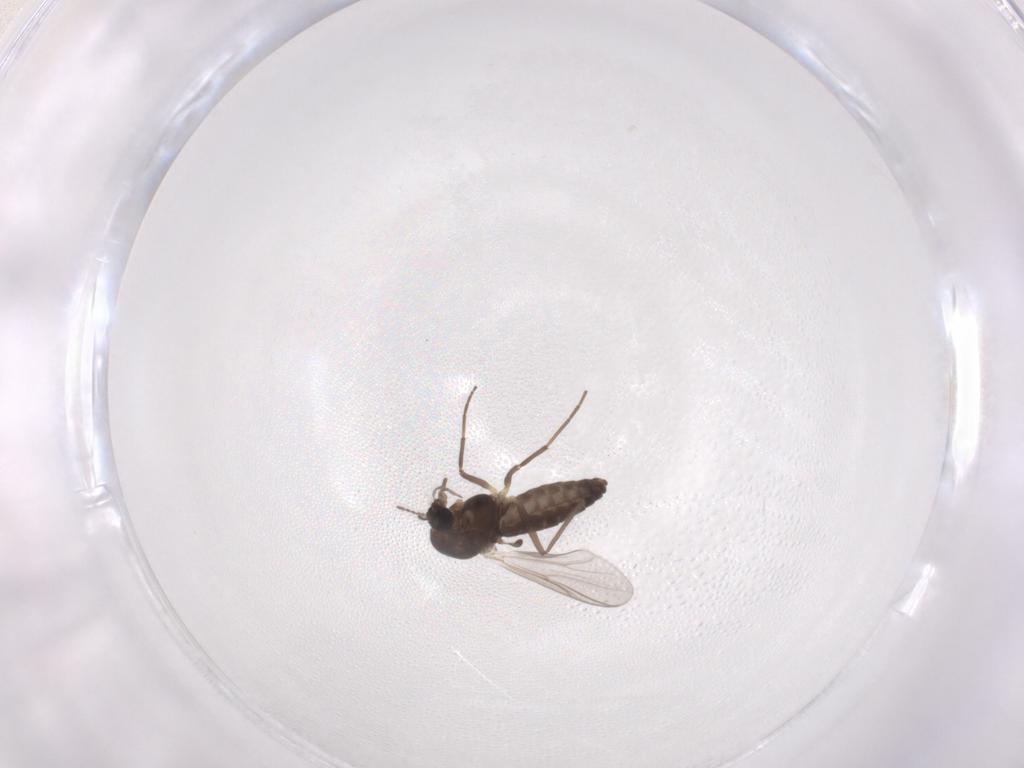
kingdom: Animalia
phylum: Arthropoda
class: Insecta
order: Diptera
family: Chironomidae
